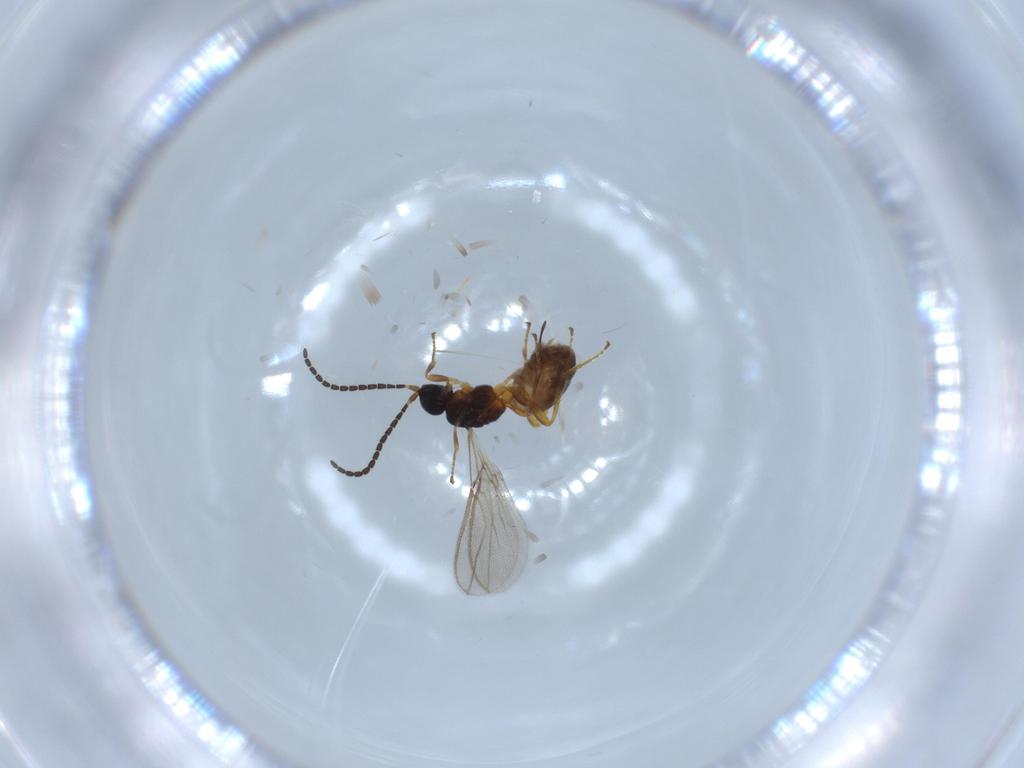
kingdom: Animalia
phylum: Arthropoda
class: Insecta
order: Hymenoptera
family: Braconidae
